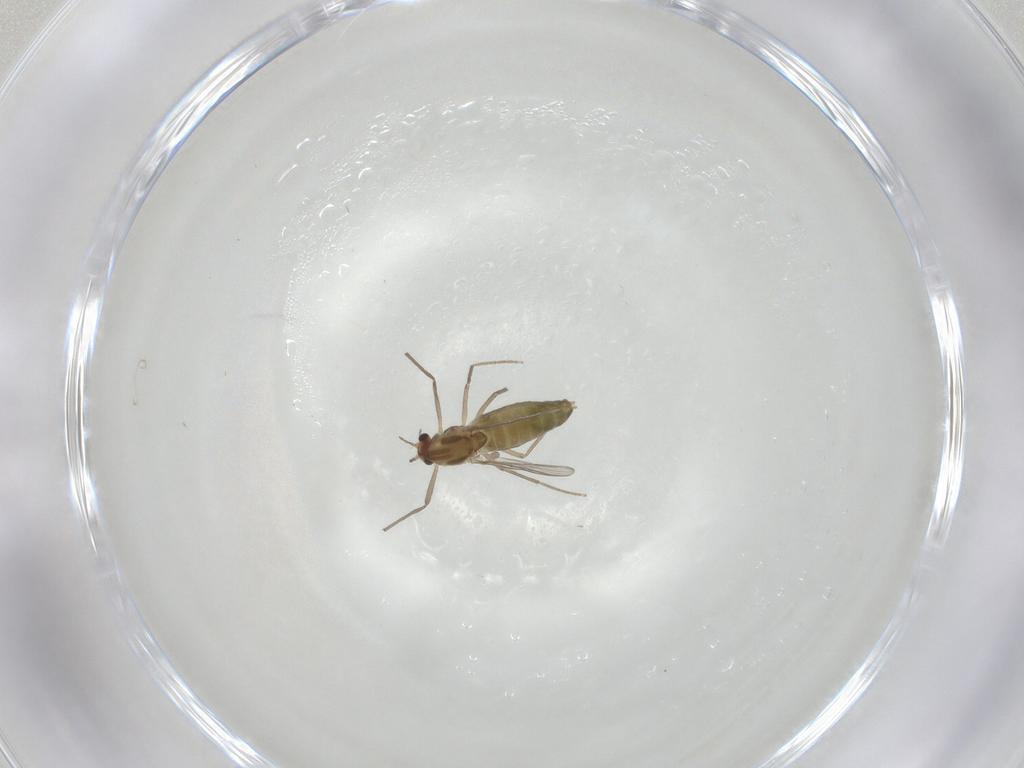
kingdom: Animalia
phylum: Arthropoda
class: Insecta
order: Diptera
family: Chironomidae
